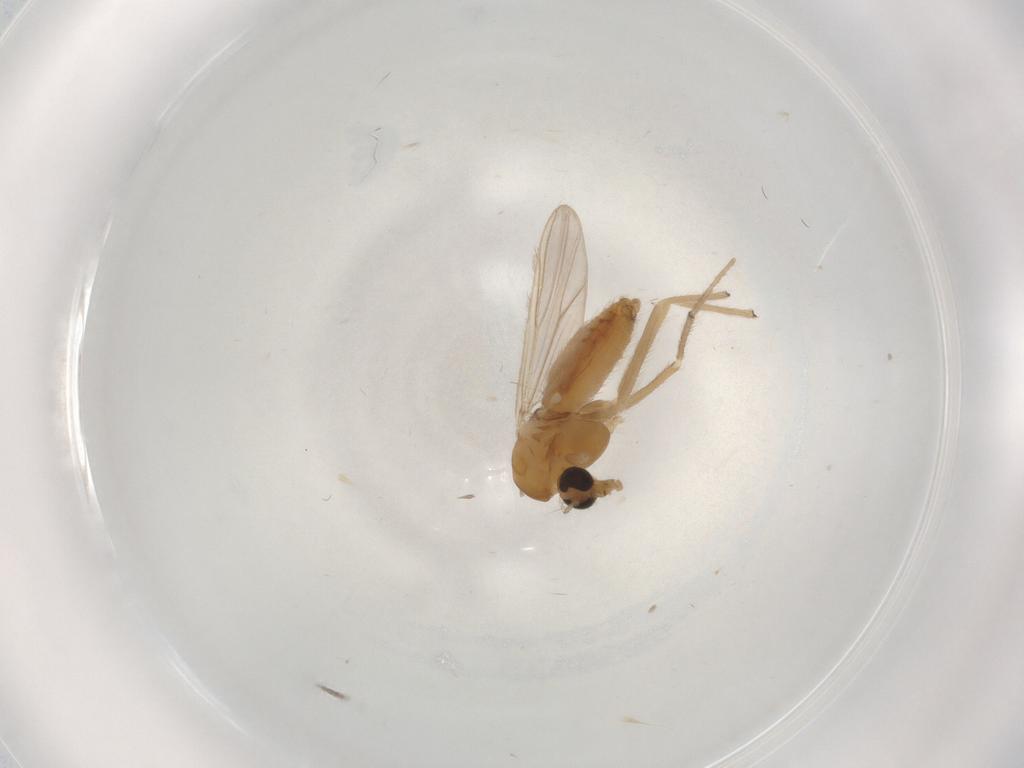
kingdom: Animalia
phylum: Arthropoda
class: Insecta
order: Diptera
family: Chironomidae
